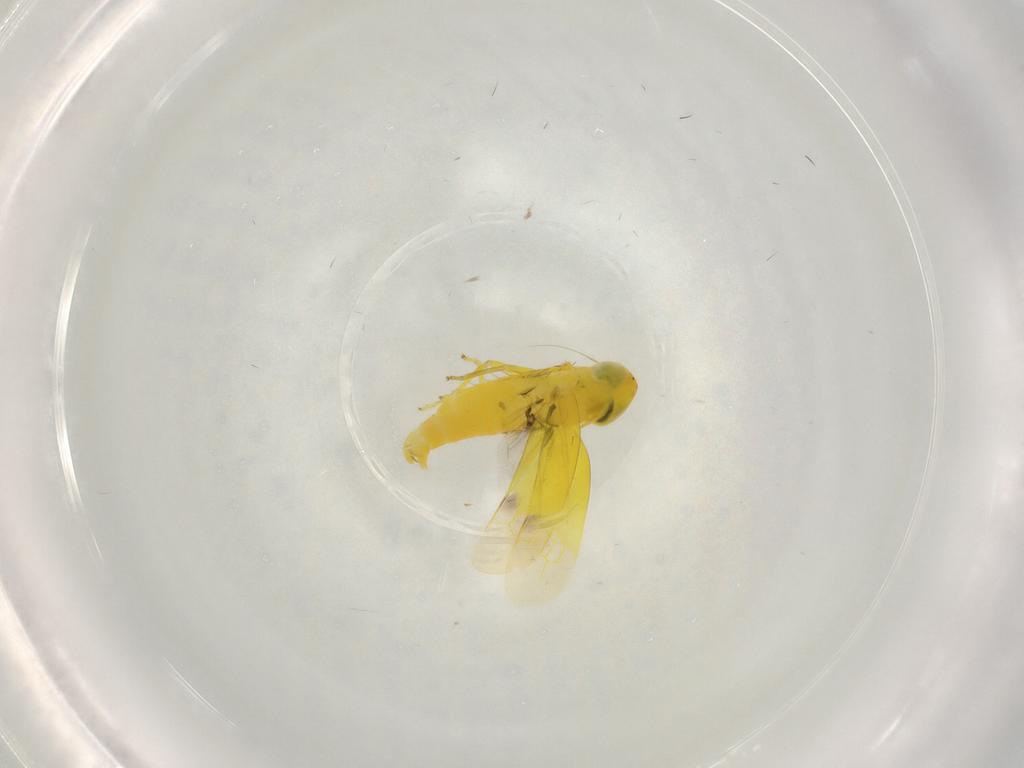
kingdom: Animalia
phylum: Arthropoda
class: Insecta
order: Hemiptera
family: Cicadellidae
